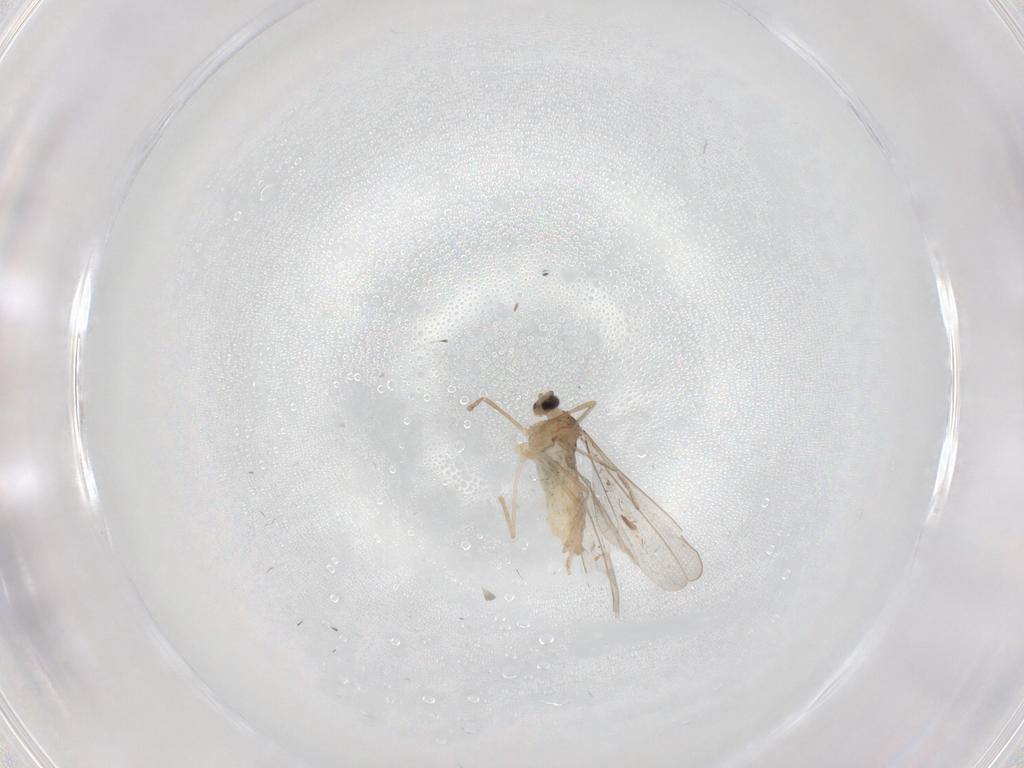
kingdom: Animalia
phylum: Arthropoda
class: Insecta
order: Diptera
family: Cecidomyiidae
